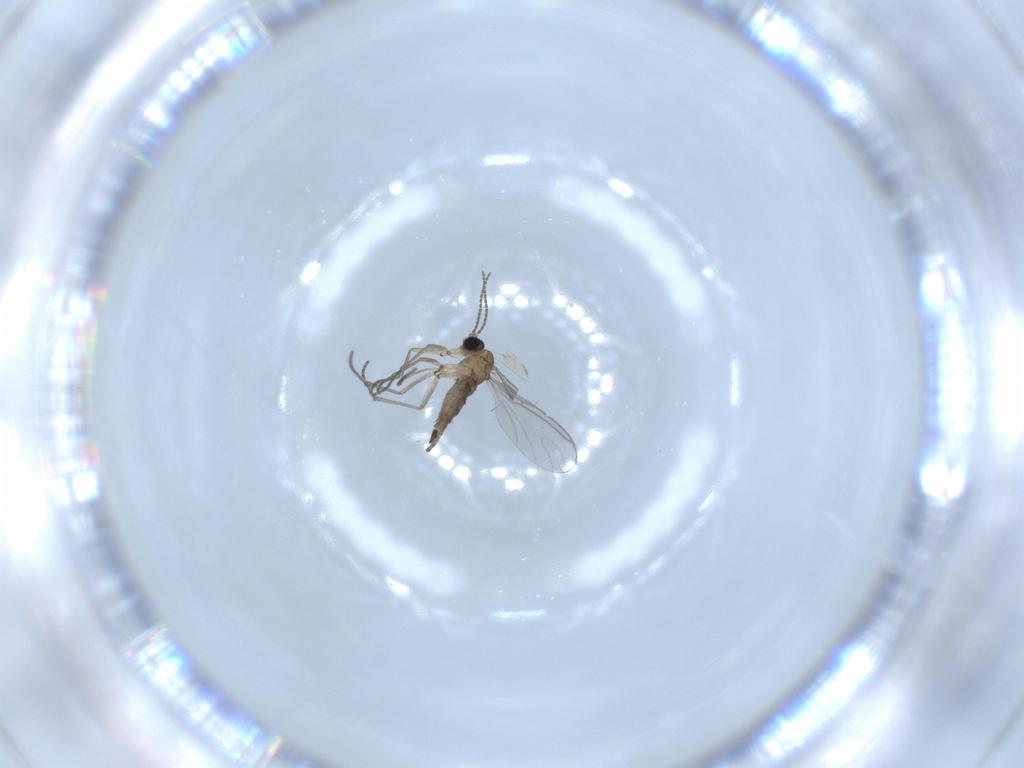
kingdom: Animalia
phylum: Arthropoda
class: Insecta
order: Diptera
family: Sciaridae
